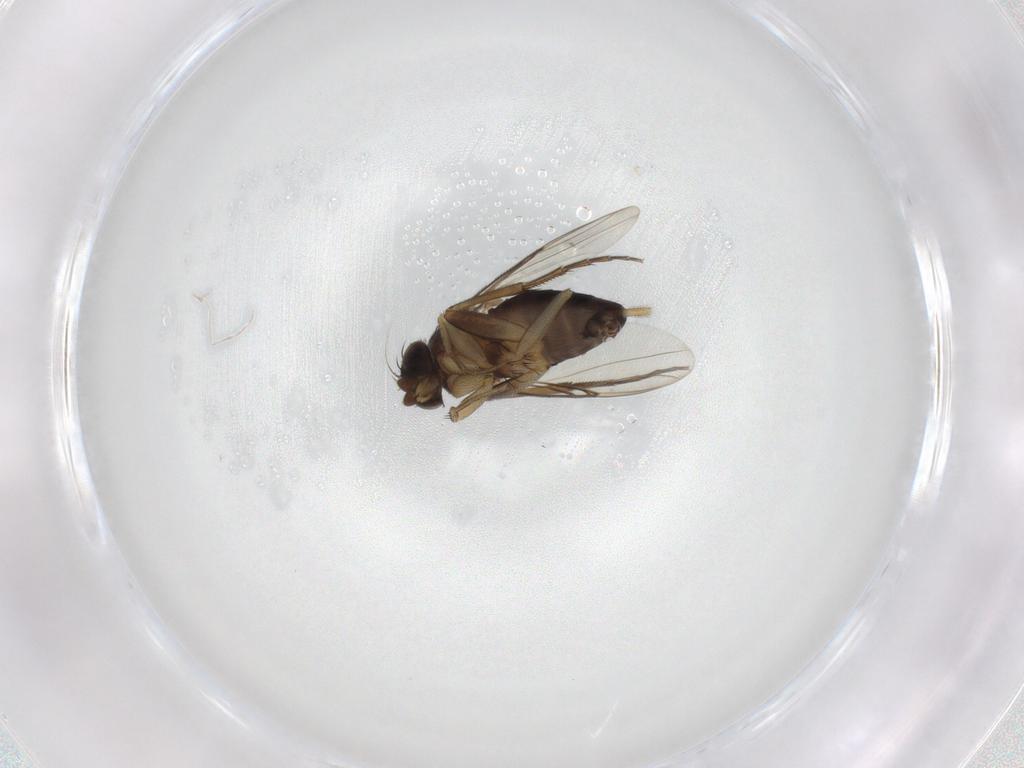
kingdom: Animalia
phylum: Arthropoda
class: Insecta
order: Diptera
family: Phoridae
